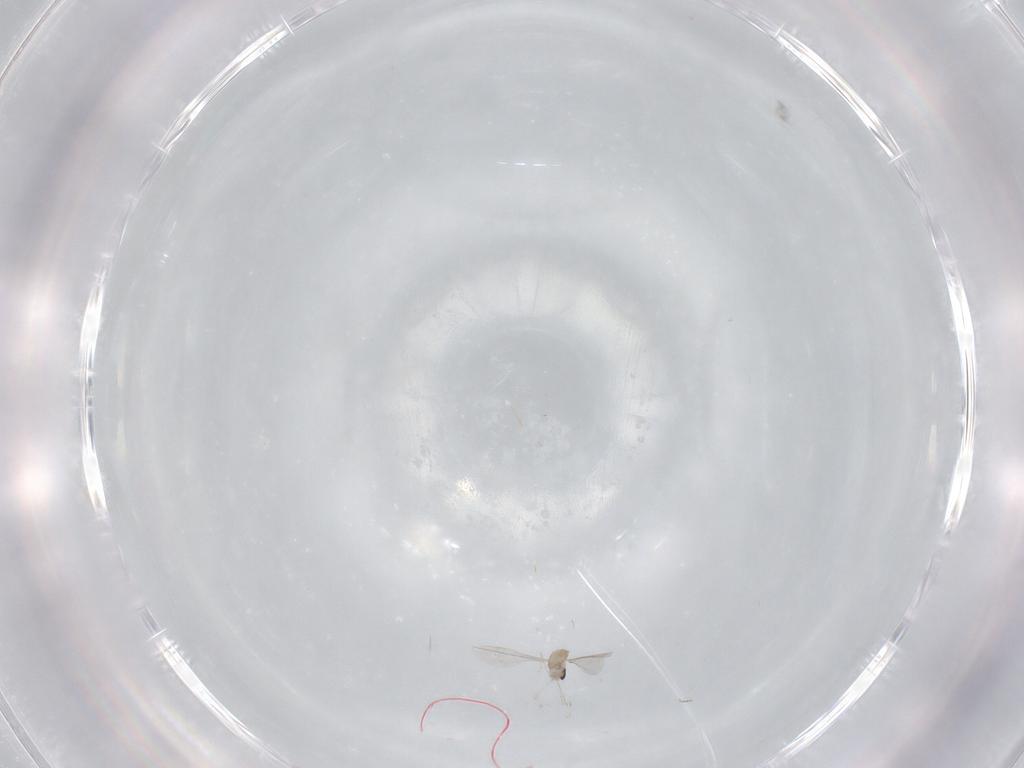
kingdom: Animalia
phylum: Arthropoda
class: Insecta
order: Diptera
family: Cecidomyiidae
